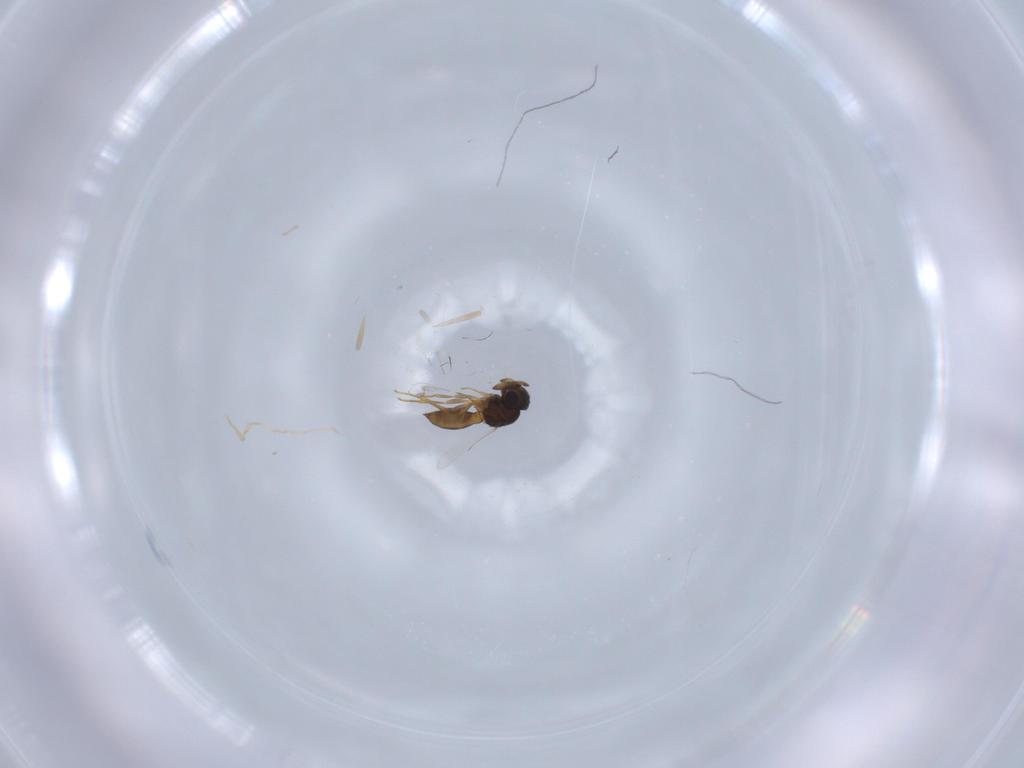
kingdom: Animalia
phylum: Arthropoda
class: Insecta
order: Hymenoptera
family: Scelionidae
